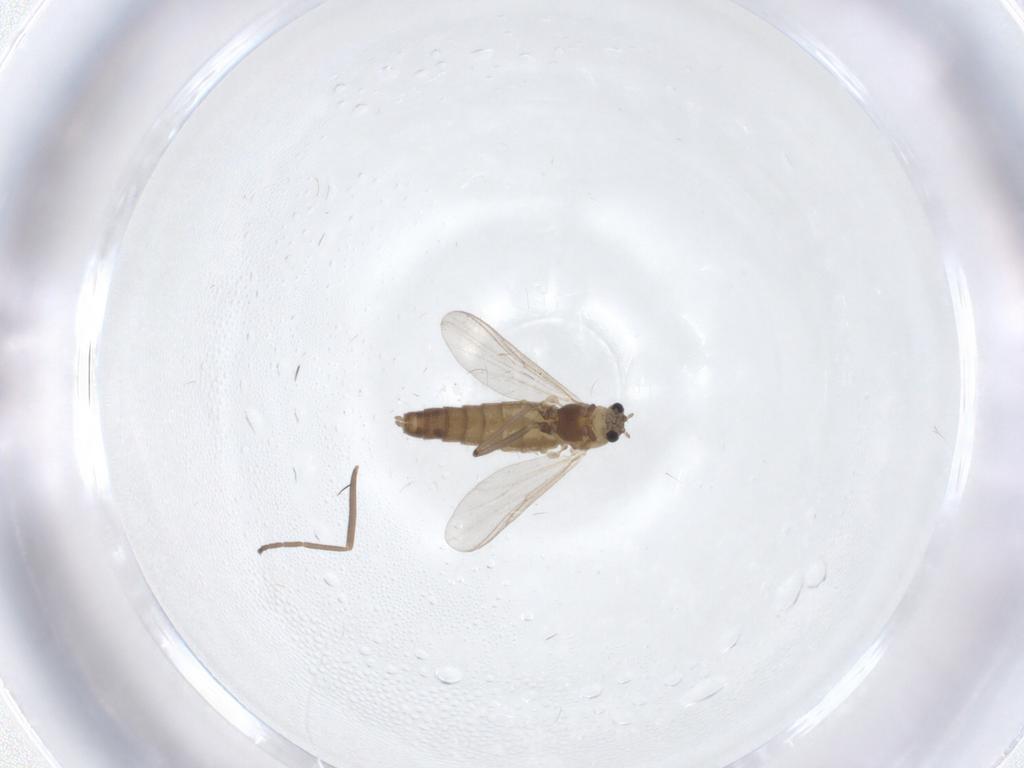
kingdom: Animalia
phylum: Arthropoda
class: Insecta
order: Diptera
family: Chironomidae
